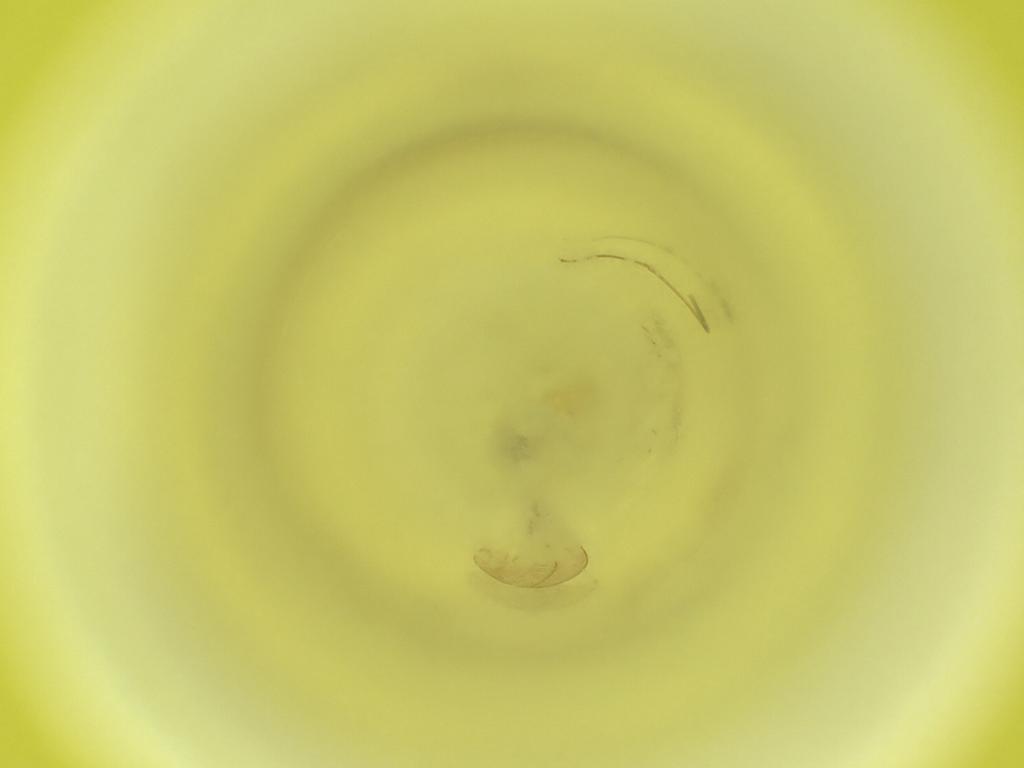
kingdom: Animalia
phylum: Arthropoda
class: Insecta
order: Diptera
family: Cecidomyiidae
